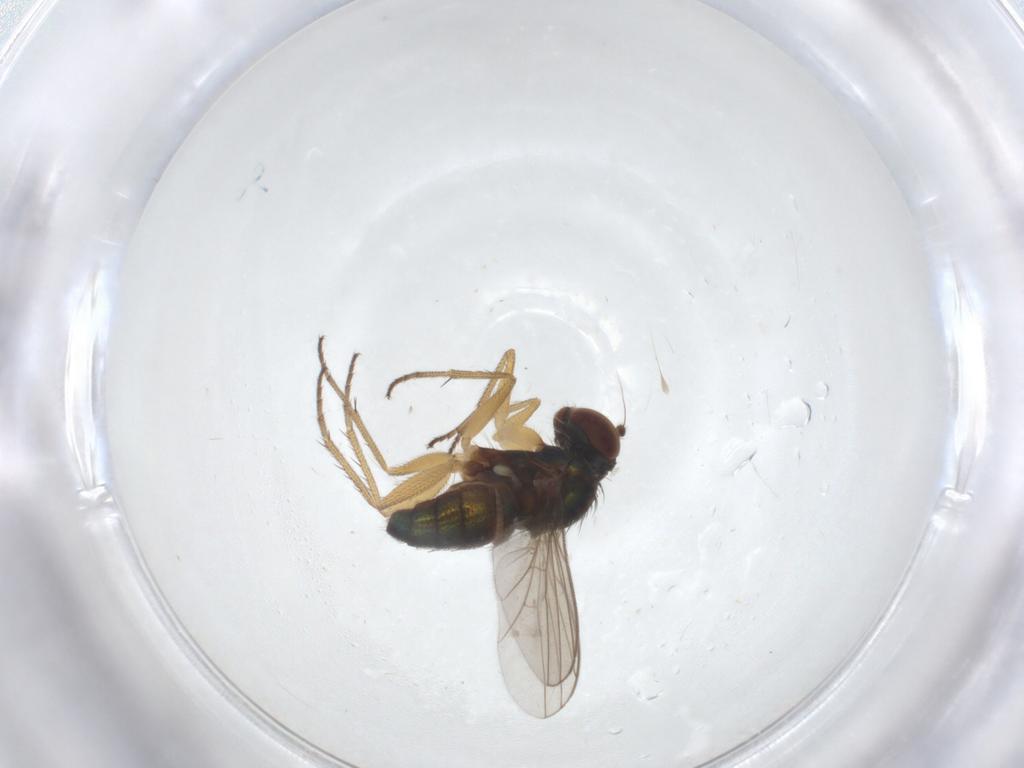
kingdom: Animalia
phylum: Arthropoda
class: Insecta
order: Diptera
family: Dolichopodidae
